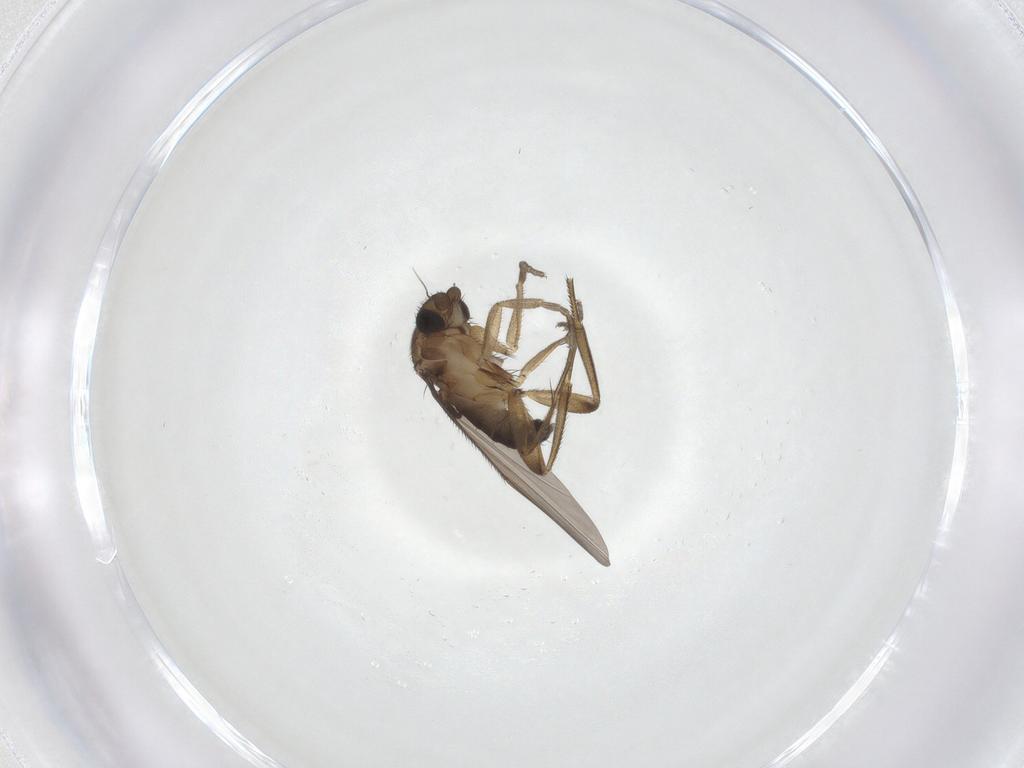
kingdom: Animalia
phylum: Arthropoda
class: Insecta
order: Diptera
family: Phoridae
